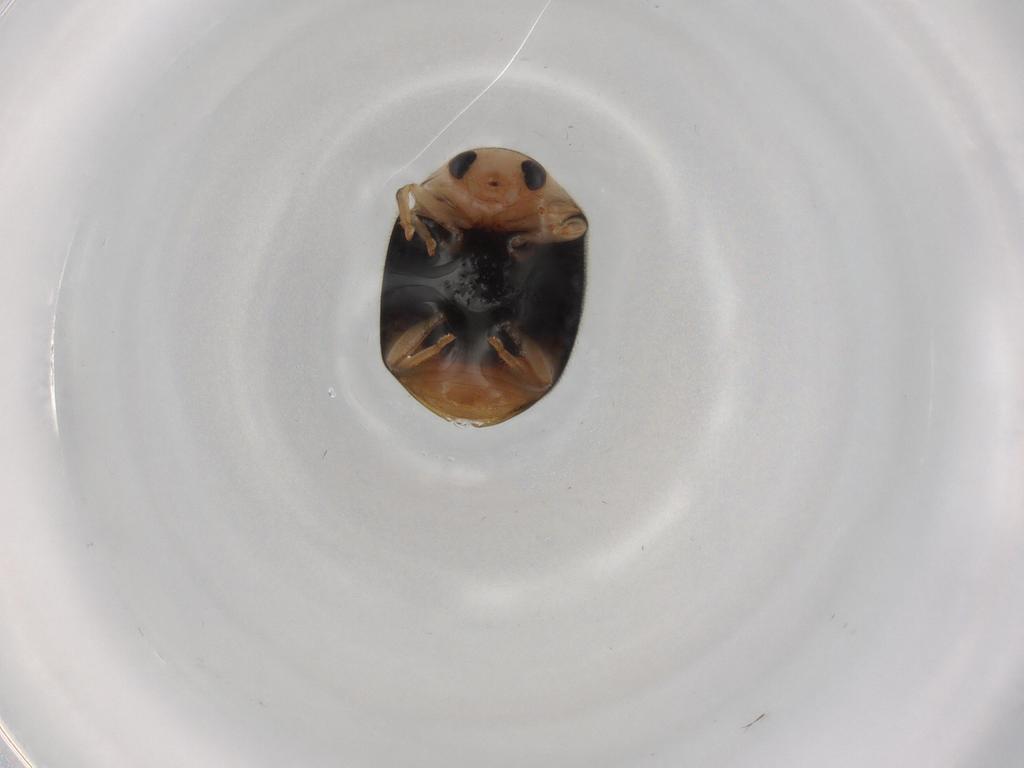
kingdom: Animalia
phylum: Arthropoda
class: Insecta
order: Coleoptera
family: Coccinellidae
